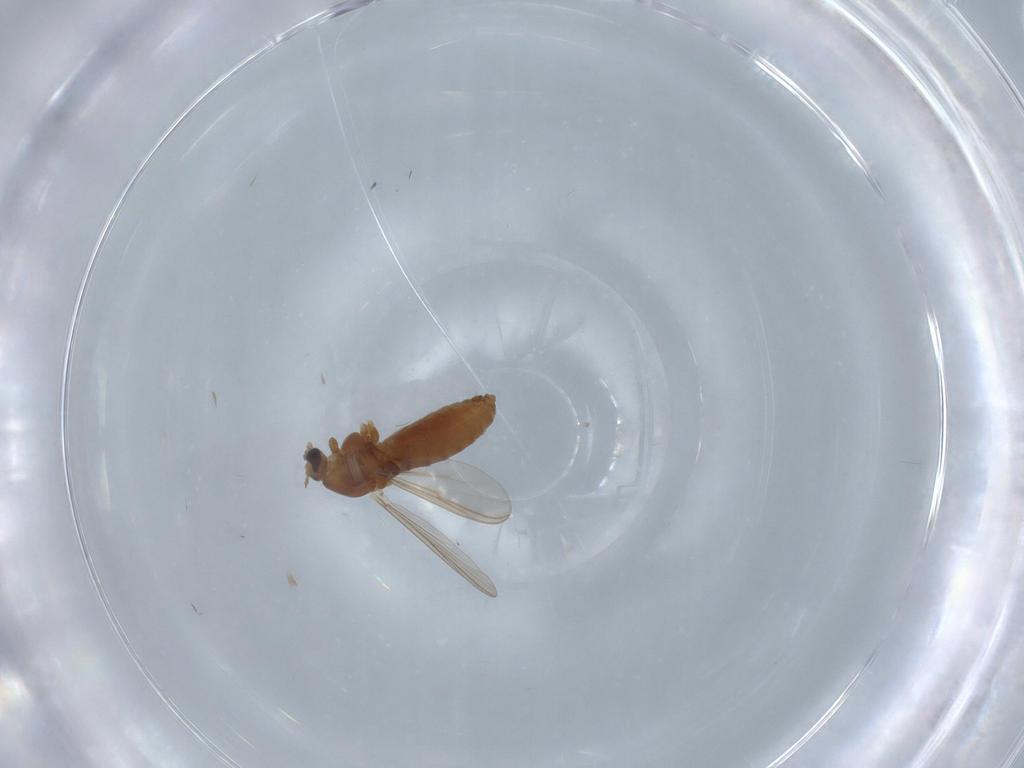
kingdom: Animalia
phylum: Arthropoda
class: Insecta
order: Diptera
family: Chironomidae
